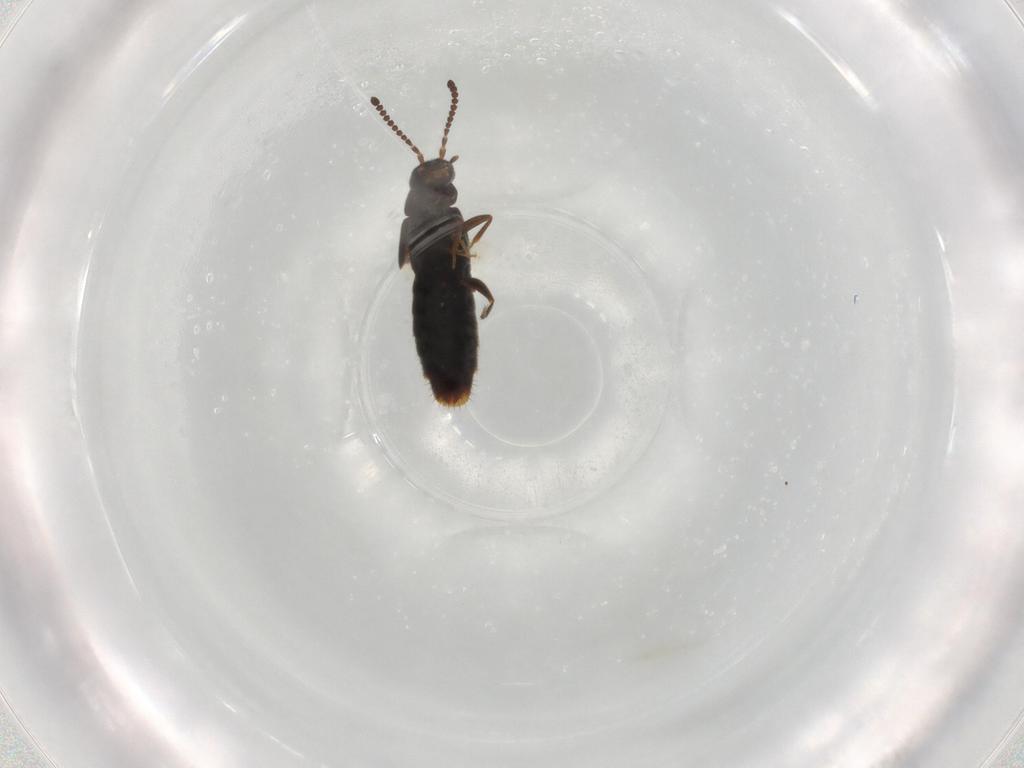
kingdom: Animalia
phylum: Arthropoda
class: Insecta
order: Coleoptera
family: Staphylinidae
